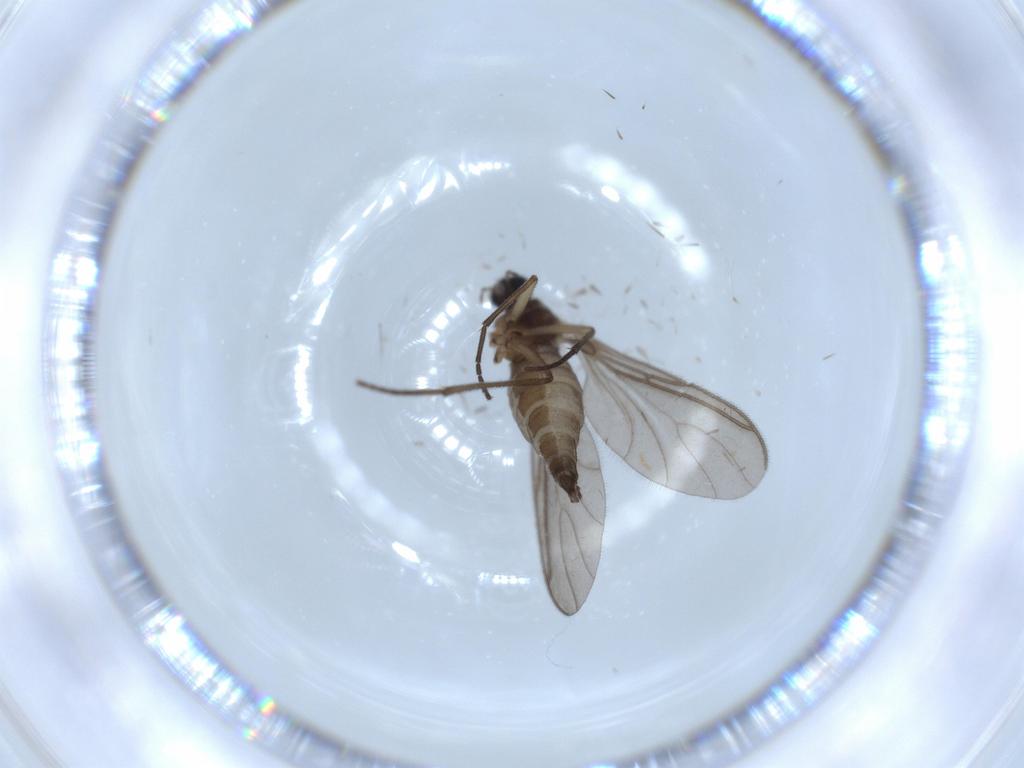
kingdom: Animalia
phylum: Arthropoda
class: Insecta
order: Diptera
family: Sciaridae
